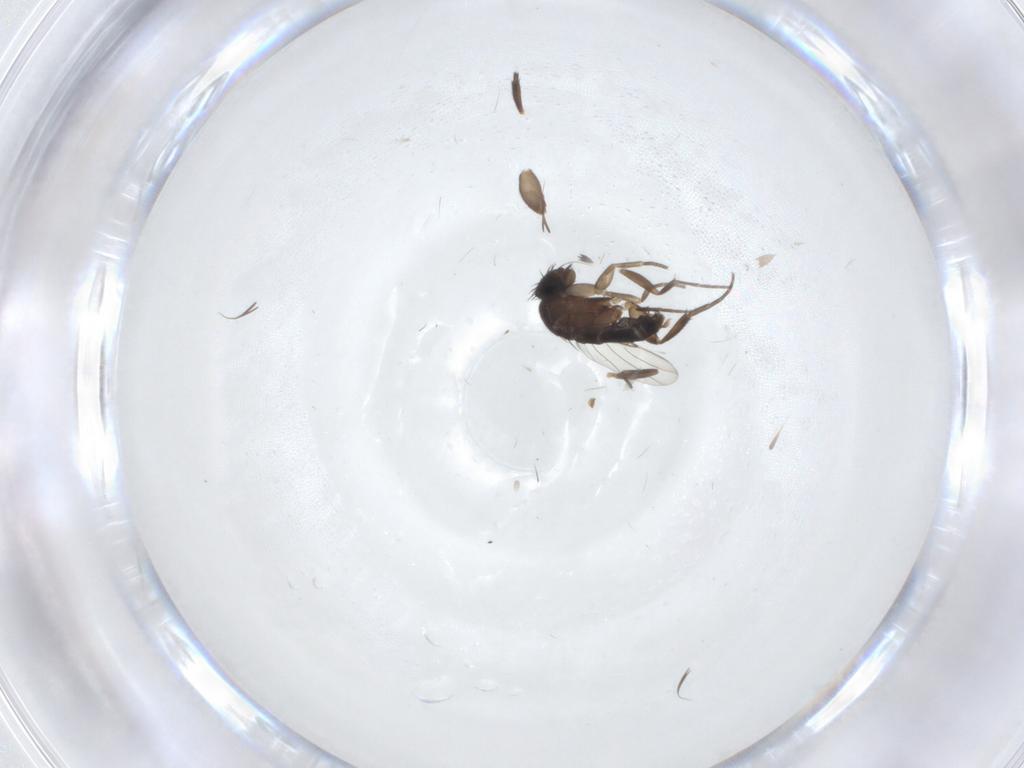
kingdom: Animalia
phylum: Arthropoda
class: Insecta
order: Diptera
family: Phoridae
